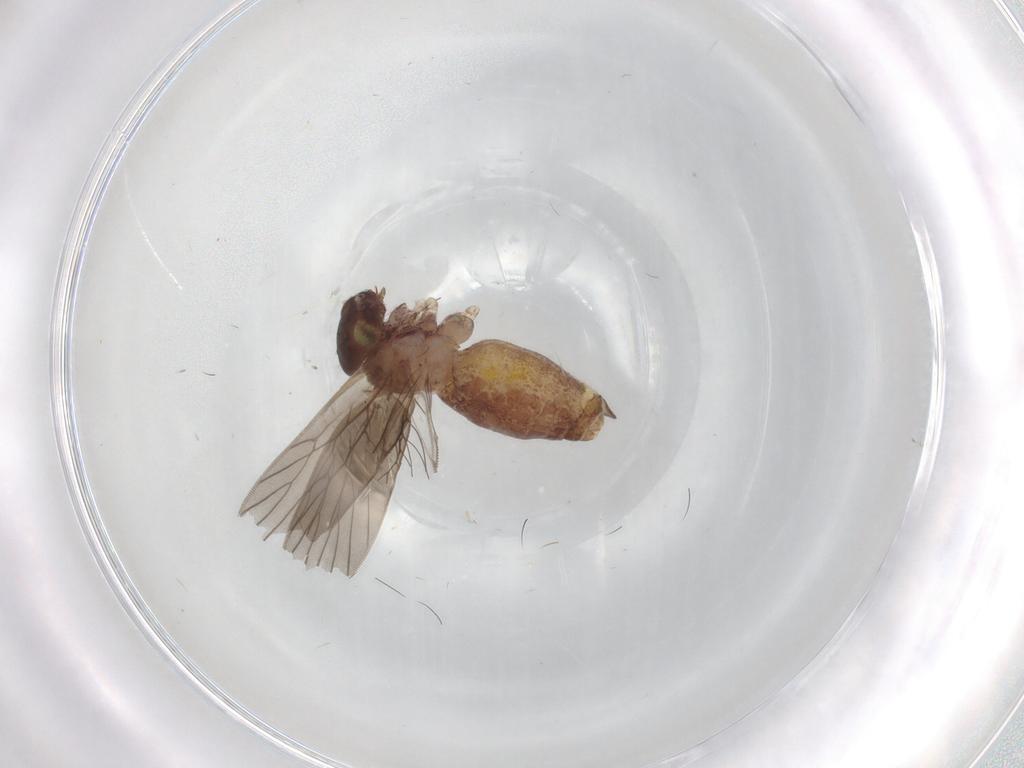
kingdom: Animalia
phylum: Arthropoda
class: Insecta
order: Psocodea
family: Lepidopsocidae
